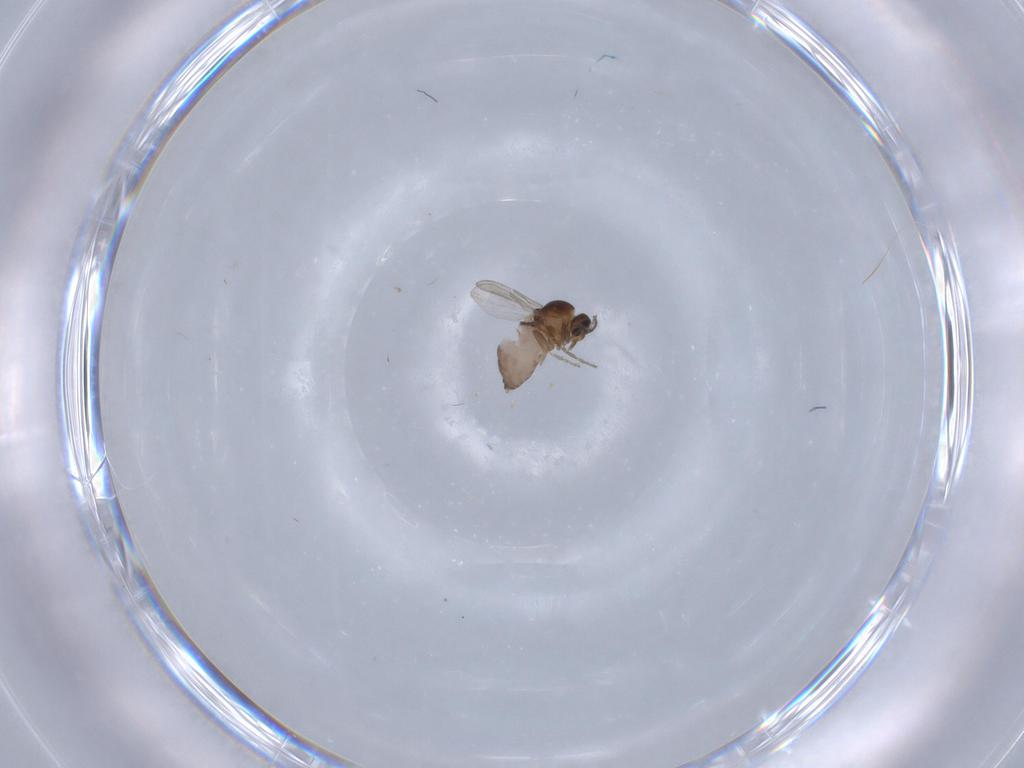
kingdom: Animalia
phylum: Arthropoda
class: Insecta
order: Diptera
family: Ceratopogonidae
